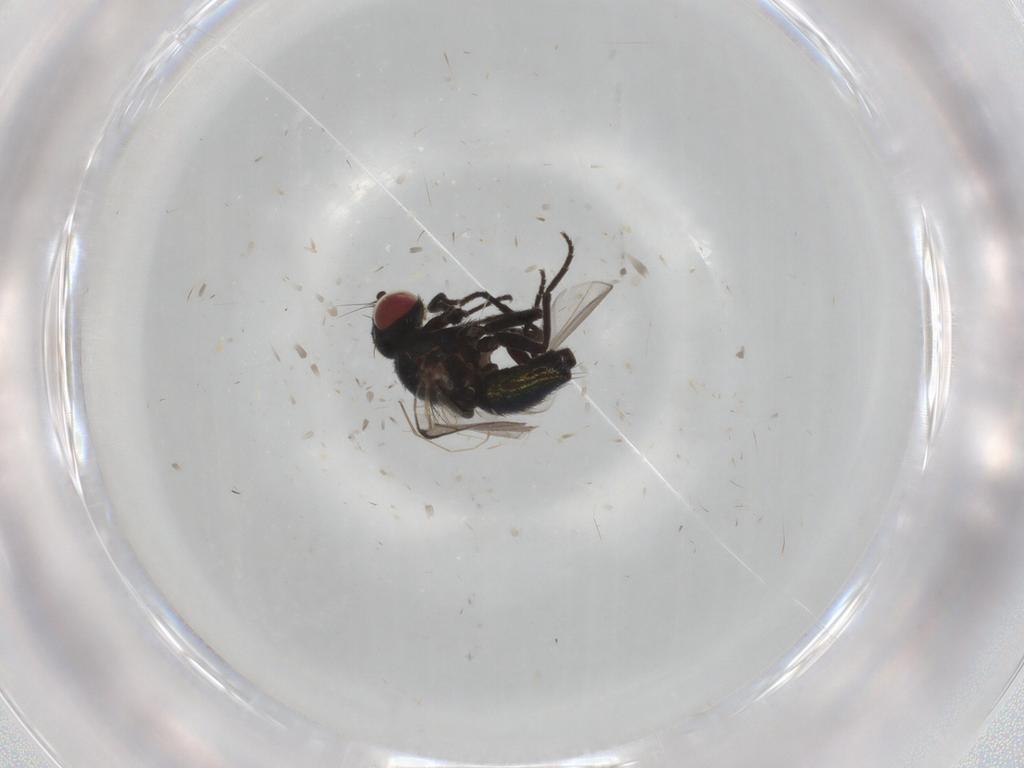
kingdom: Animalia
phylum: Arthropoda
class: Insecta
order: Diptera
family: Agromyzidae
